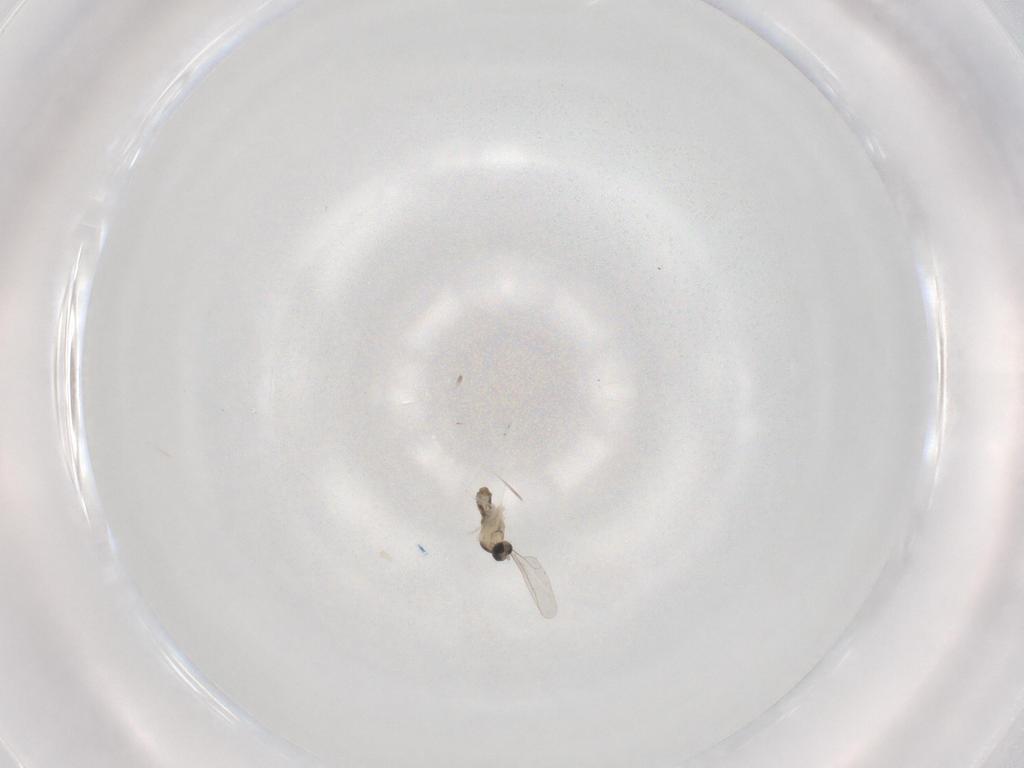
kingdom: Animalia
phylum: Arthropoda
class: Insecta
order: Diptera
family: Cecidomyiidae
